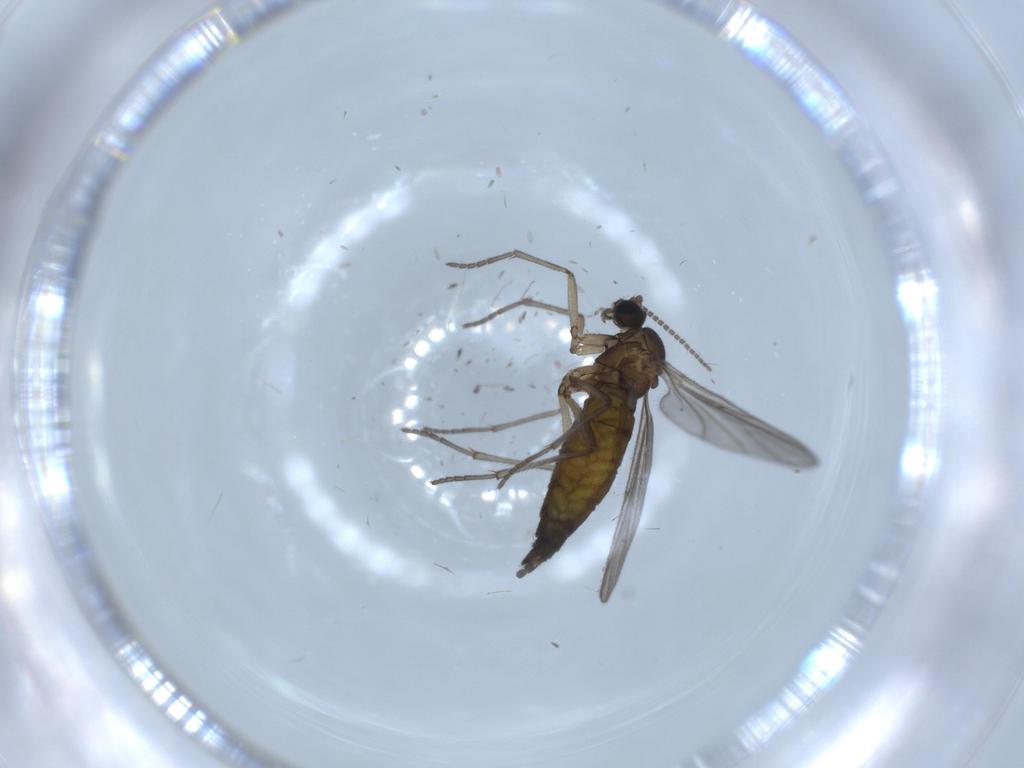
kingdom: Animalia
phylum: Arthropoda
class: Insecta
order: Diptera
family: Sciaridae
